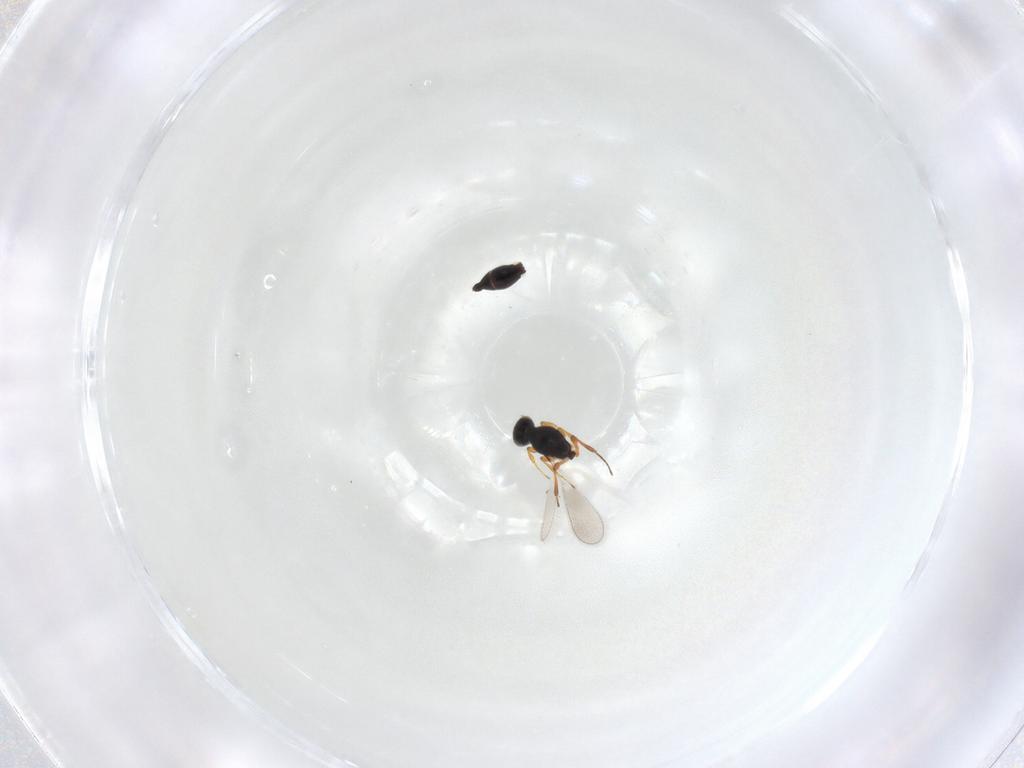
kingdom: Animalia
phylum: Arthropoda
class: Insecta
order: Hymenoptera
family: Platygastridae
